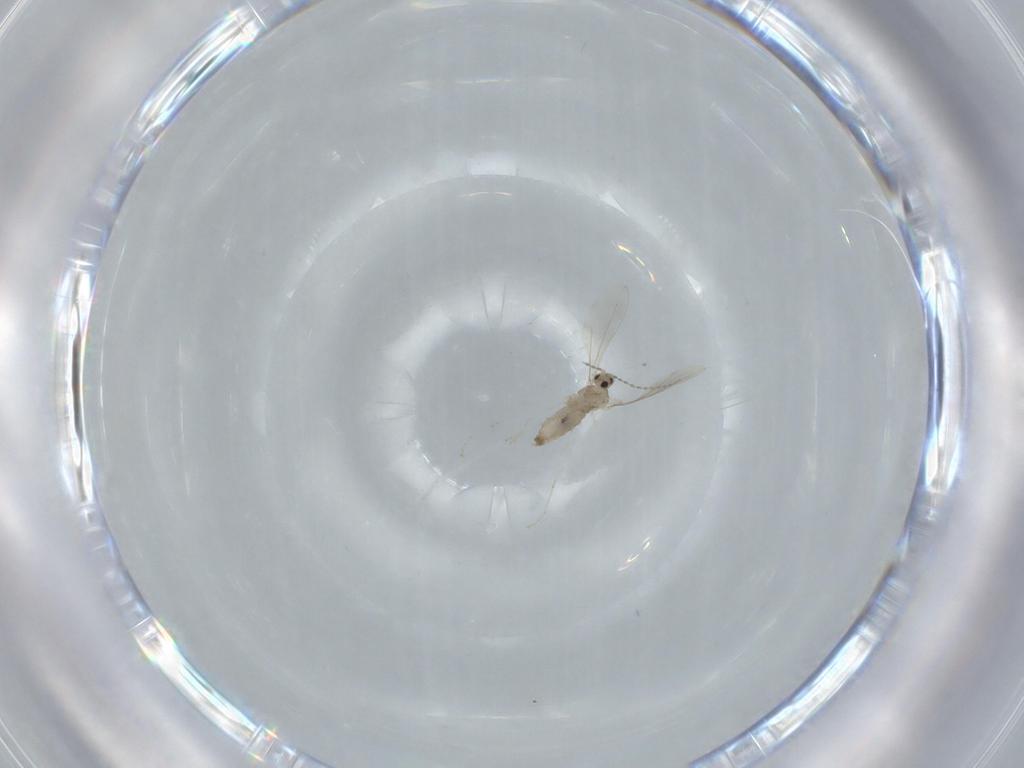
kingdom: Animalia
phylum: Arthropoda
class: Insecta
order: Diptera
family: Cecidomyiidae
